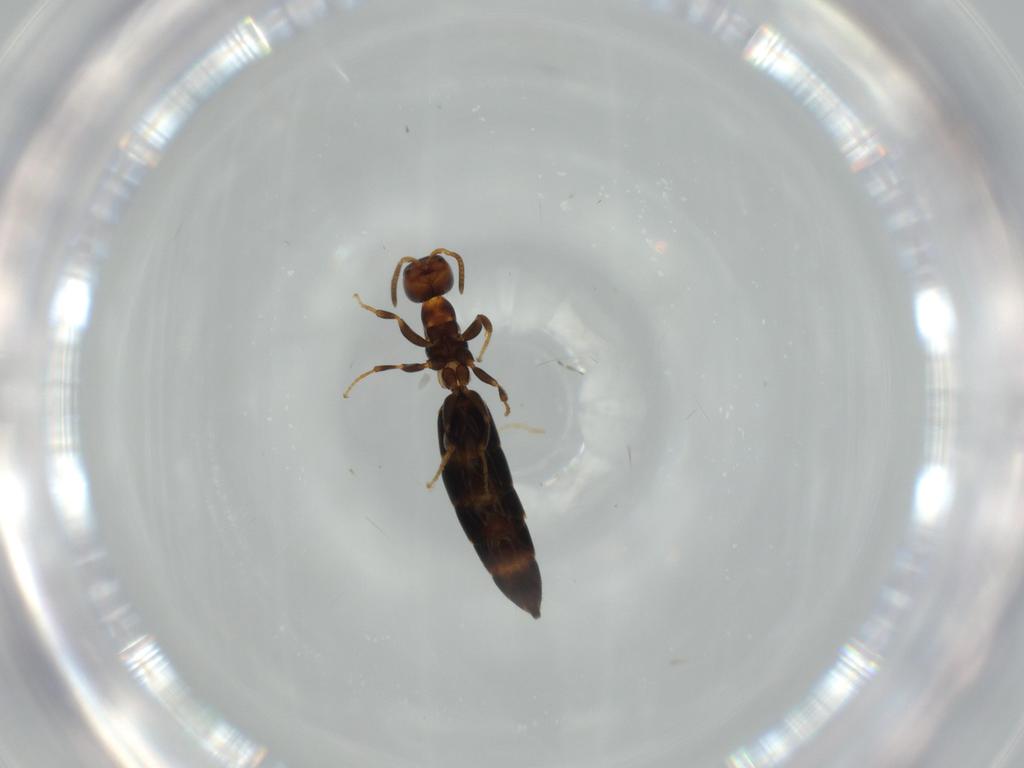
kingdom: Animalia
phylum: Arthropoda
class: Insecta
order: Hymenoptera
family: Bethylidae
